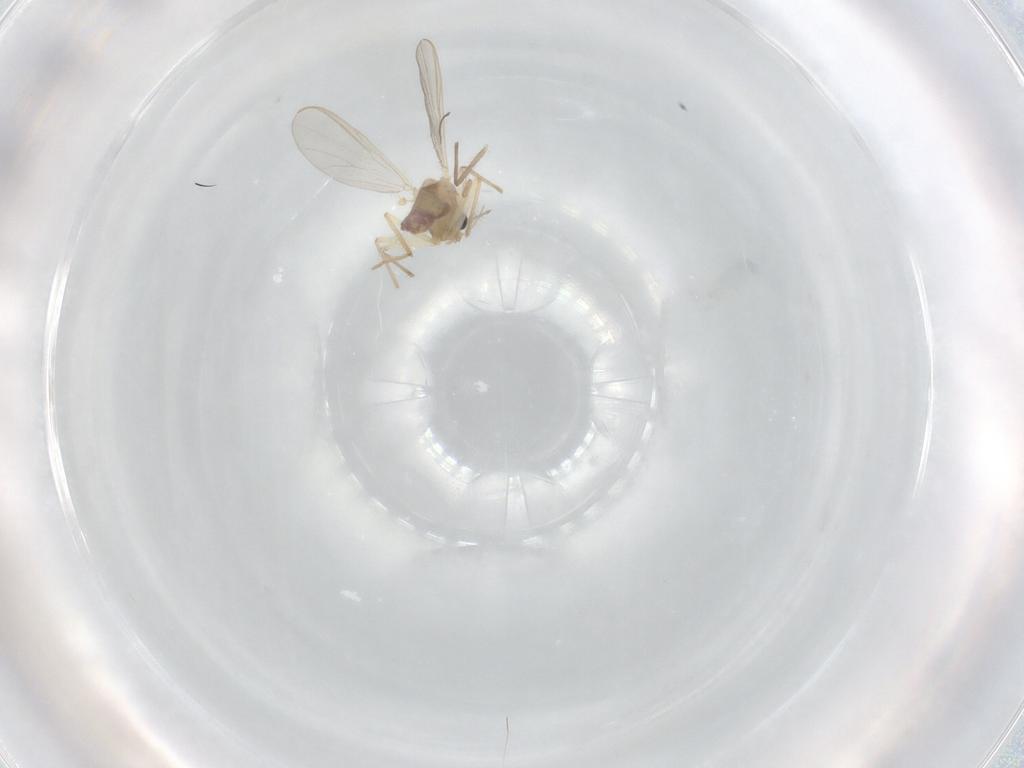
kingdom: Animalia
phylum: Arthropoda
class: Insecta
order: Diptera
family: Chironomidae
